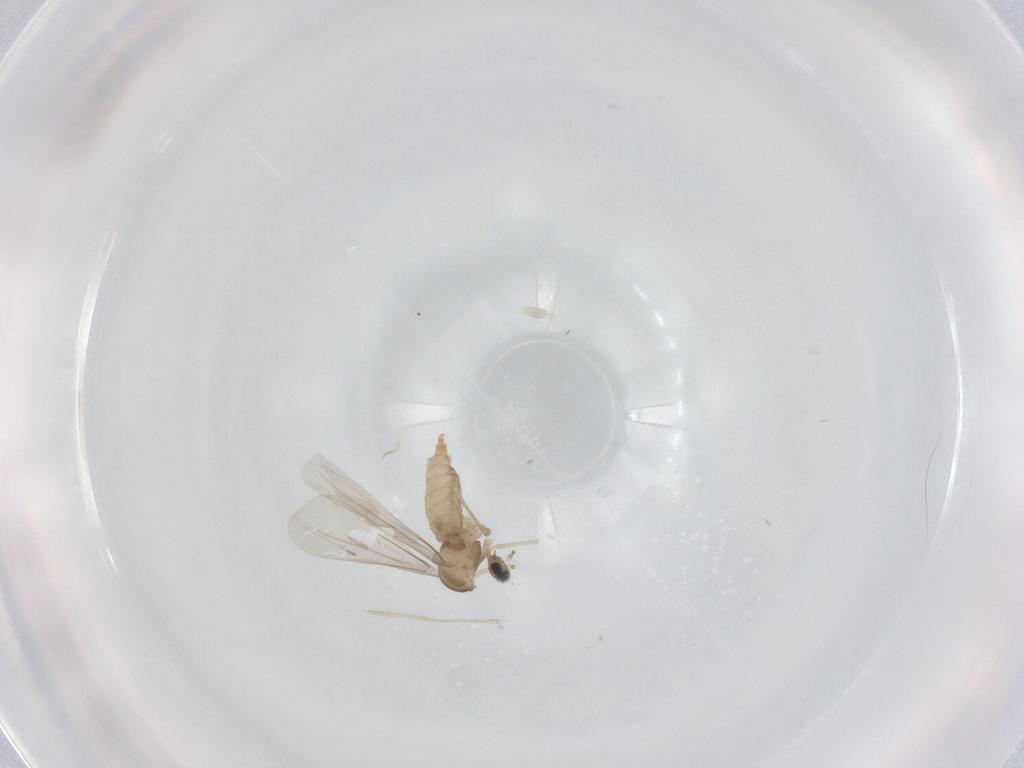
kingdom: Animalia
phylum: Arthropoda
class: Insecta
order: Diptera
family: Cecidomyiidae
